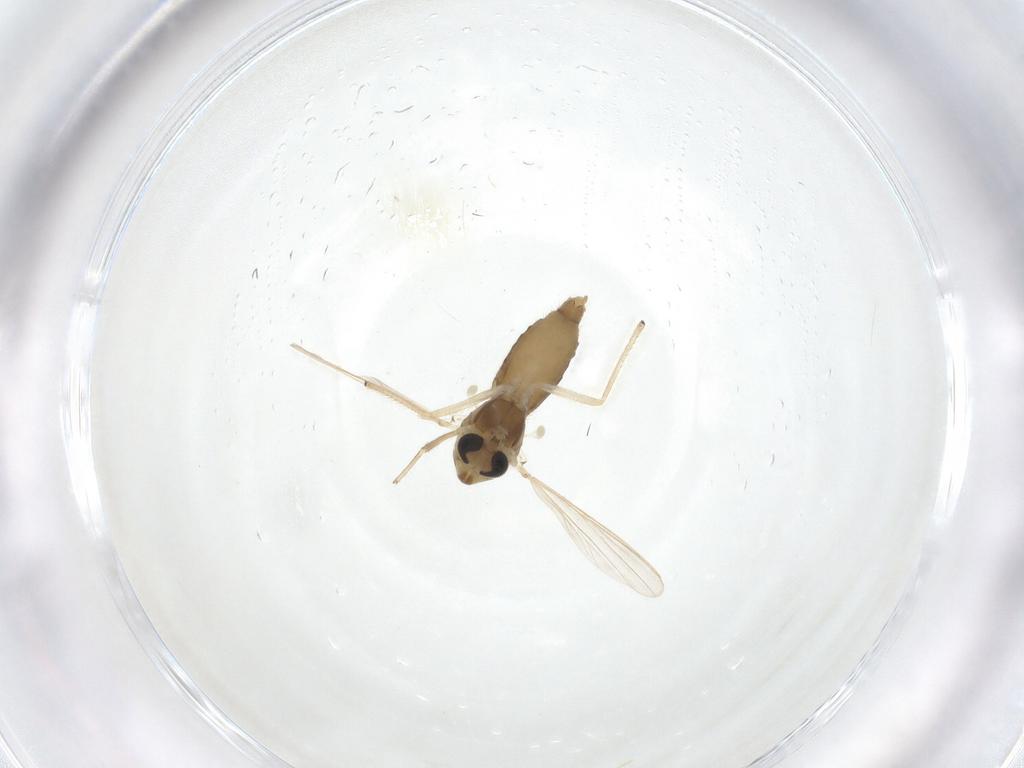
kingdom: Animalia
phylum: Arthropoda
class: Insecta
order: Diptera
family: Chironomidae
